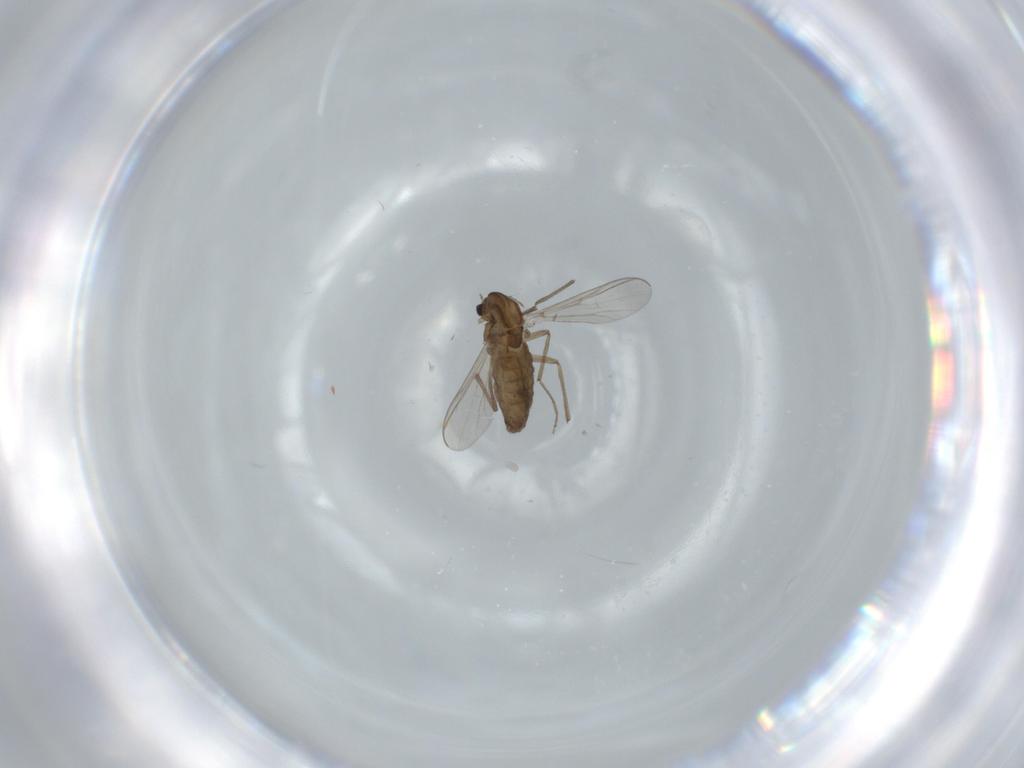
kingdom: Animalia
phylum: Arthropoda
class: Insecta
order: Diptera
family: Chironomidae
